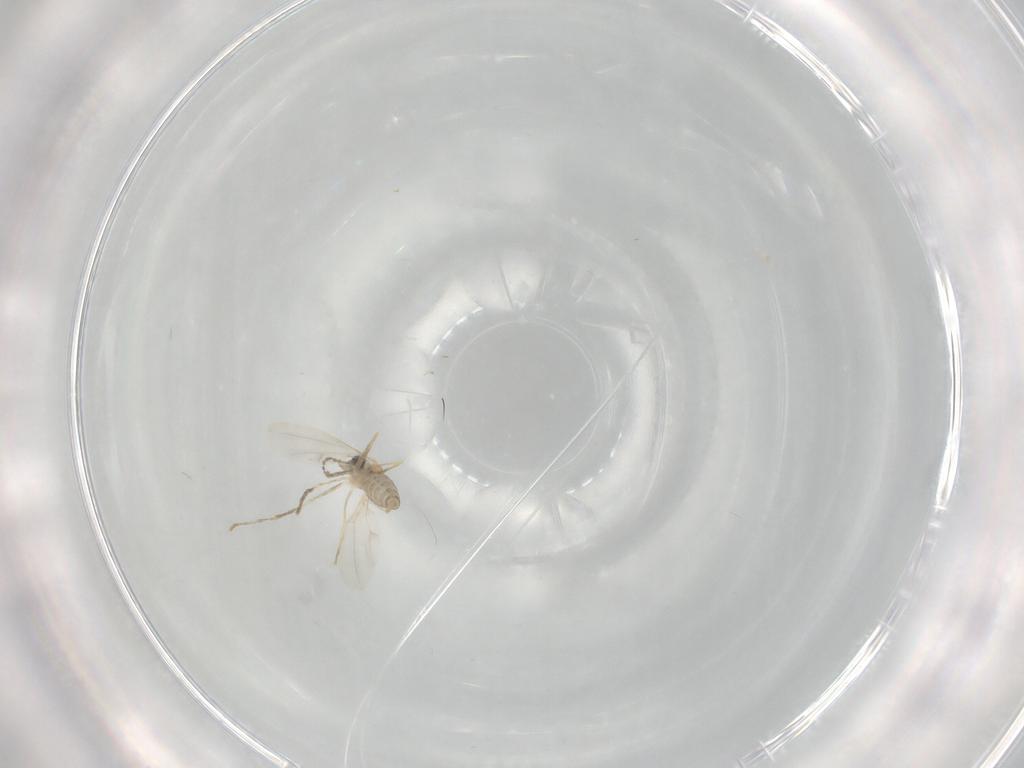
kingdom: Animalia
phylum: Arthropoda
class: Insecta
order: Diptera
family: Cecidomyiidae
